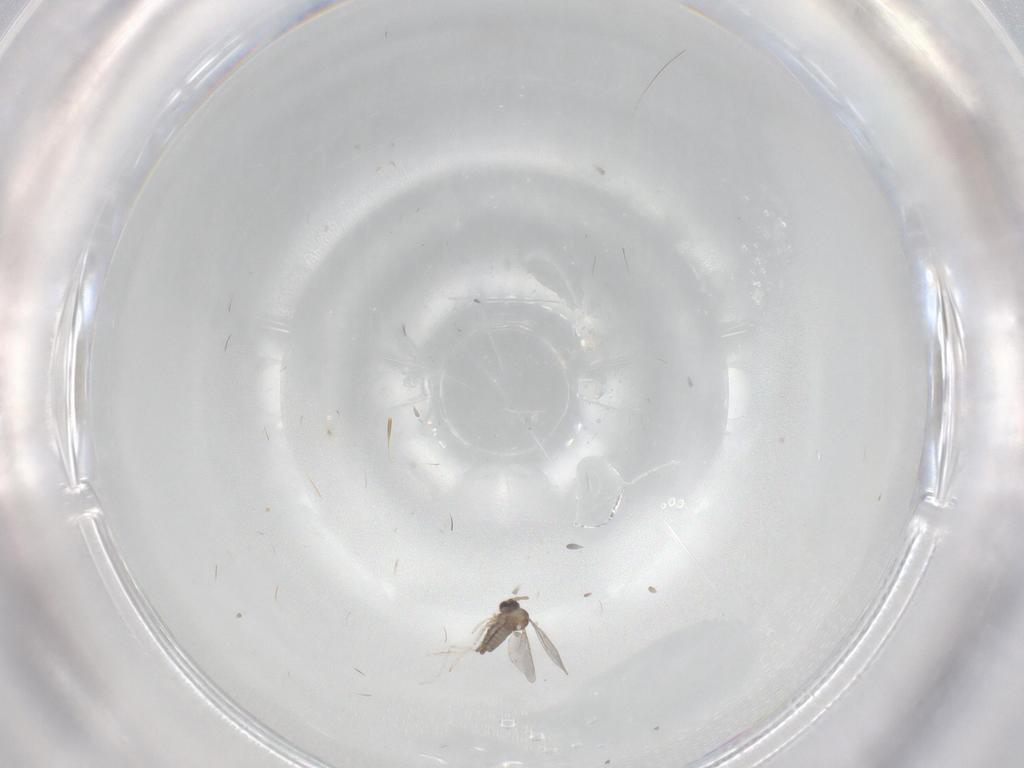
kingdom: Animalia
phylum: Arthropoda
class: Insecta
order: Diptera
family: Cecidomyiidae
